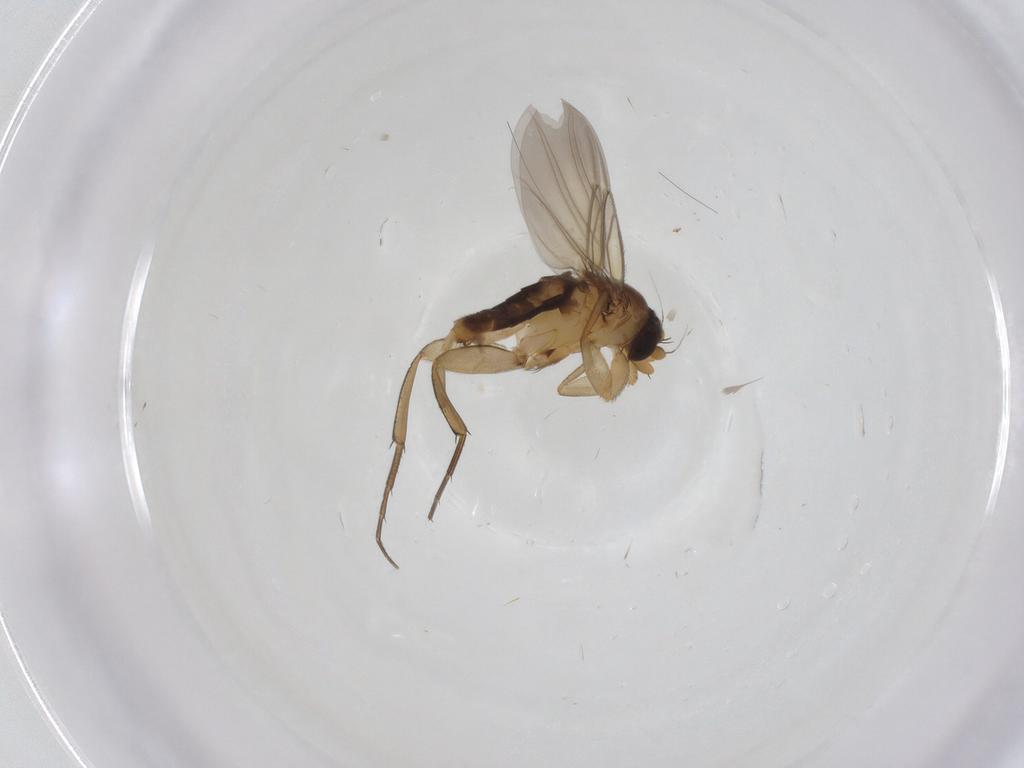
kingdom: Animalia
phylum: Arthropoda
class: Insecta
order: Diptera
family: Phoridae
